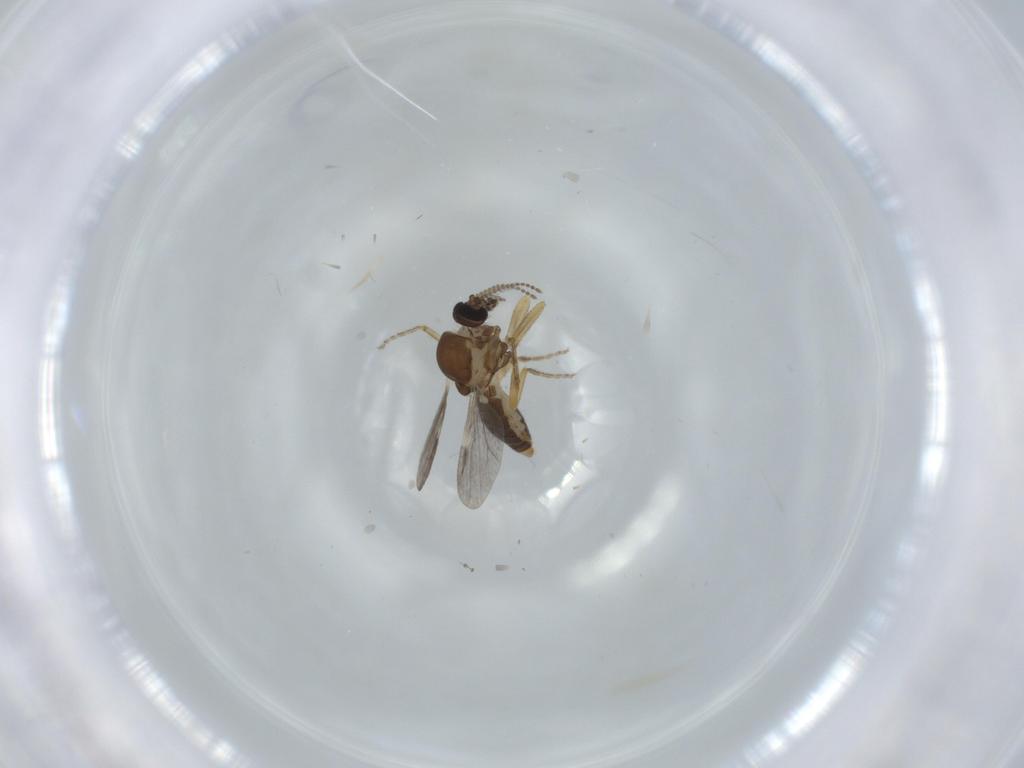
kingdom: Animalia
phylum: Arthropoda
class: Insecta
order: Diptera
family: Ceratopogonidae
